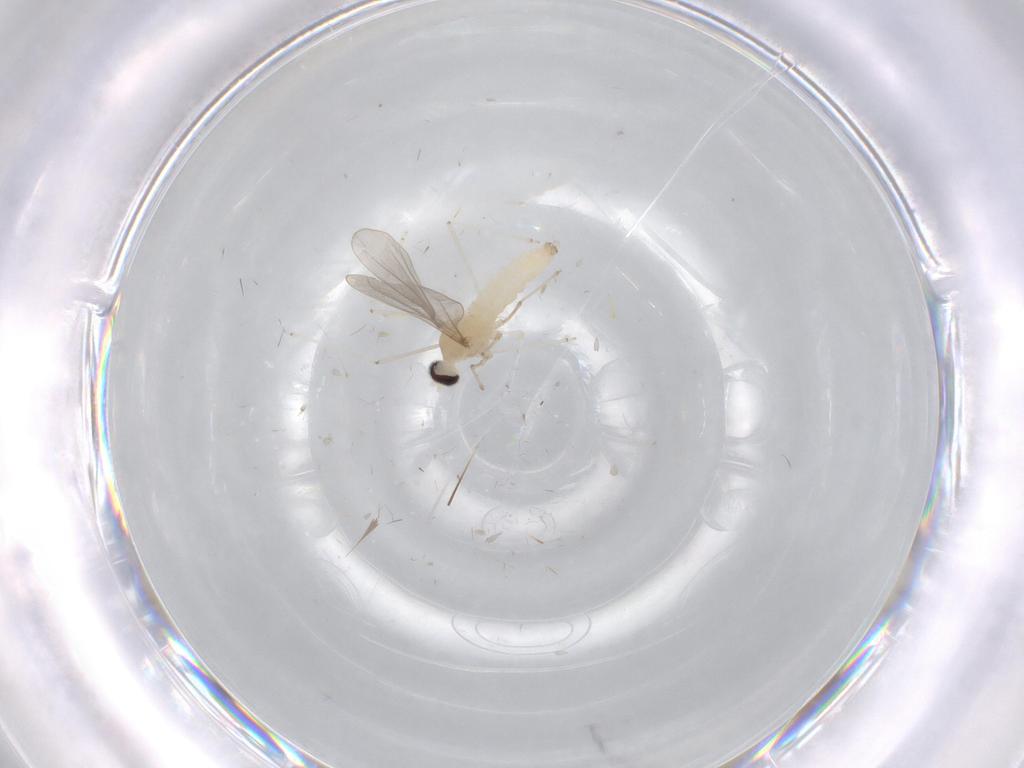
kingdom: Animalia
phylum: Arthropoda
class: Insecta
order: Diptera
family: Cecidomyiidae
